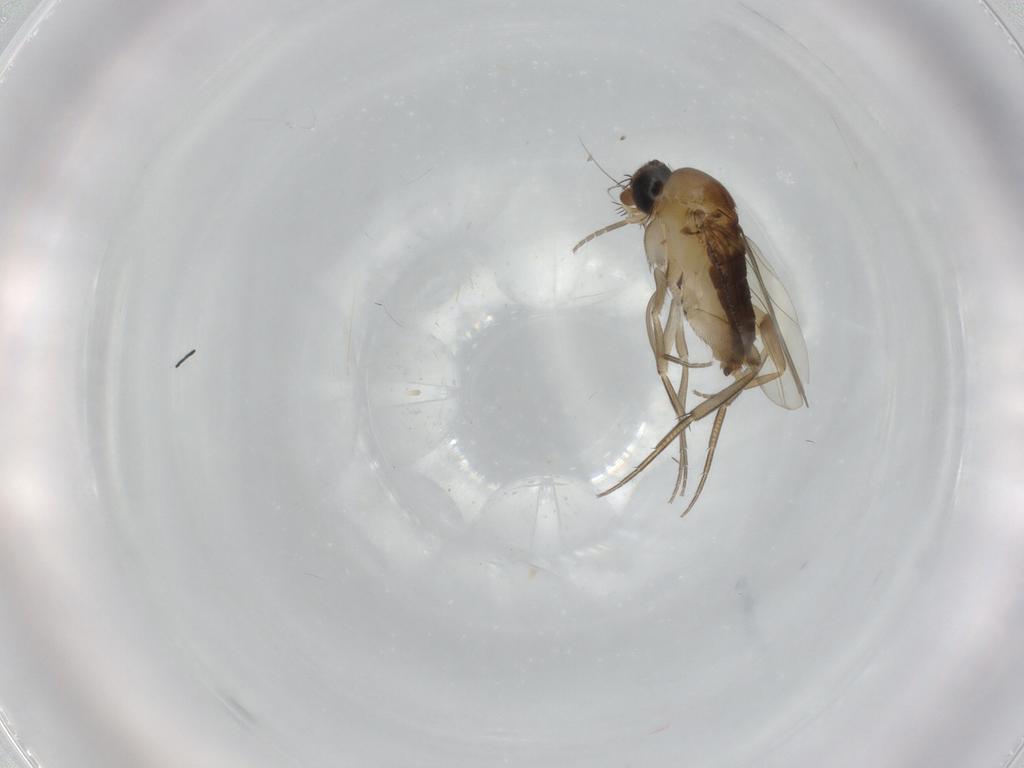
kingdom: Animalia
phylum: Arthropoda
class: Insecta
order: Diptera
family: Phoridae
